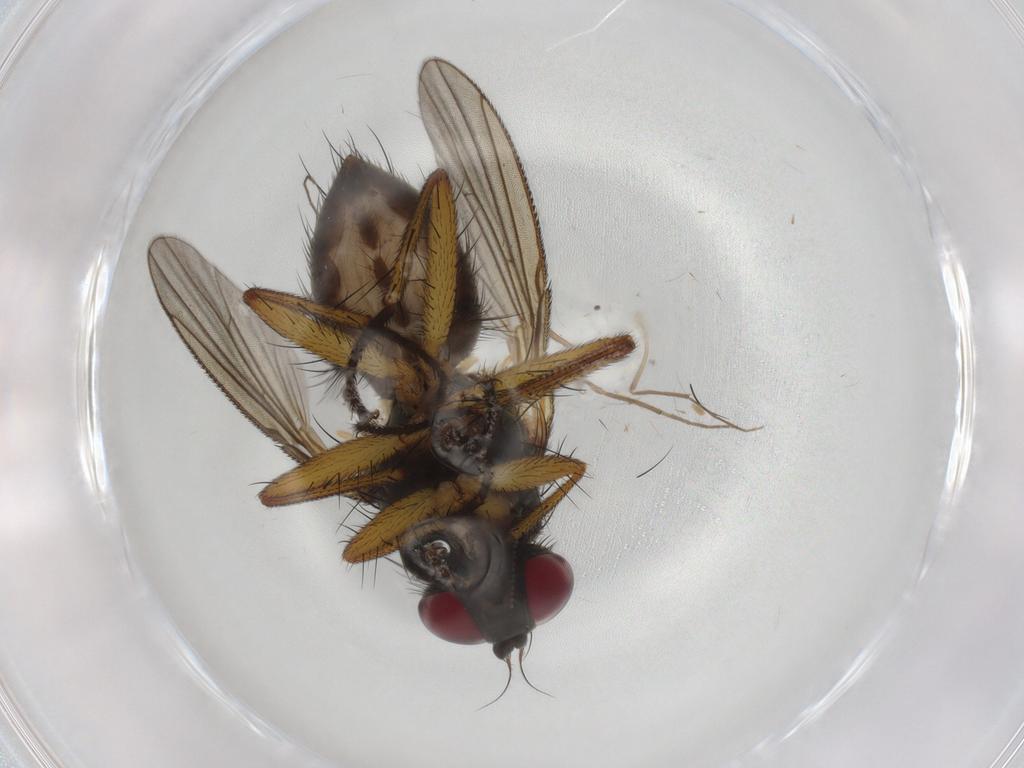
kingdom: Animalia
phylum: Arthropoda
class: Insecta
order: Diptera
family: Muscidae
